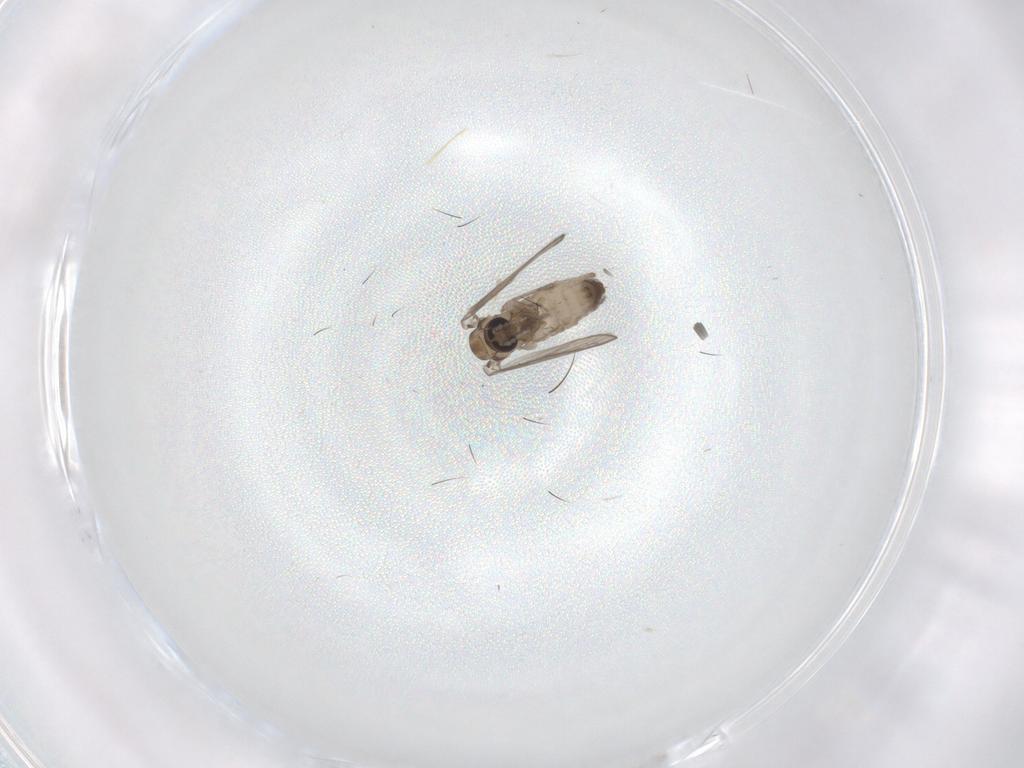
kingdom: Animalia
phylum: Arthropoda
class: Insecta
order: Diptera
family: Psychodidae
